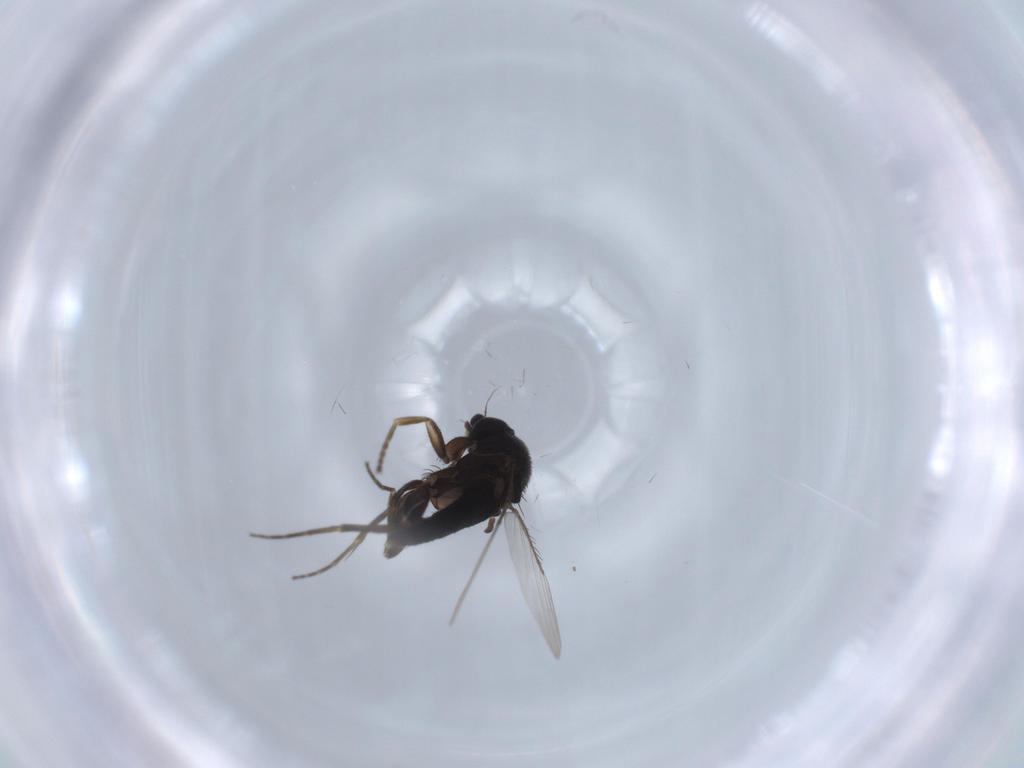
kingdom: Animalia
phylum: Arthropoda
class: Insecta
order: Diptera
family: Phoridae
